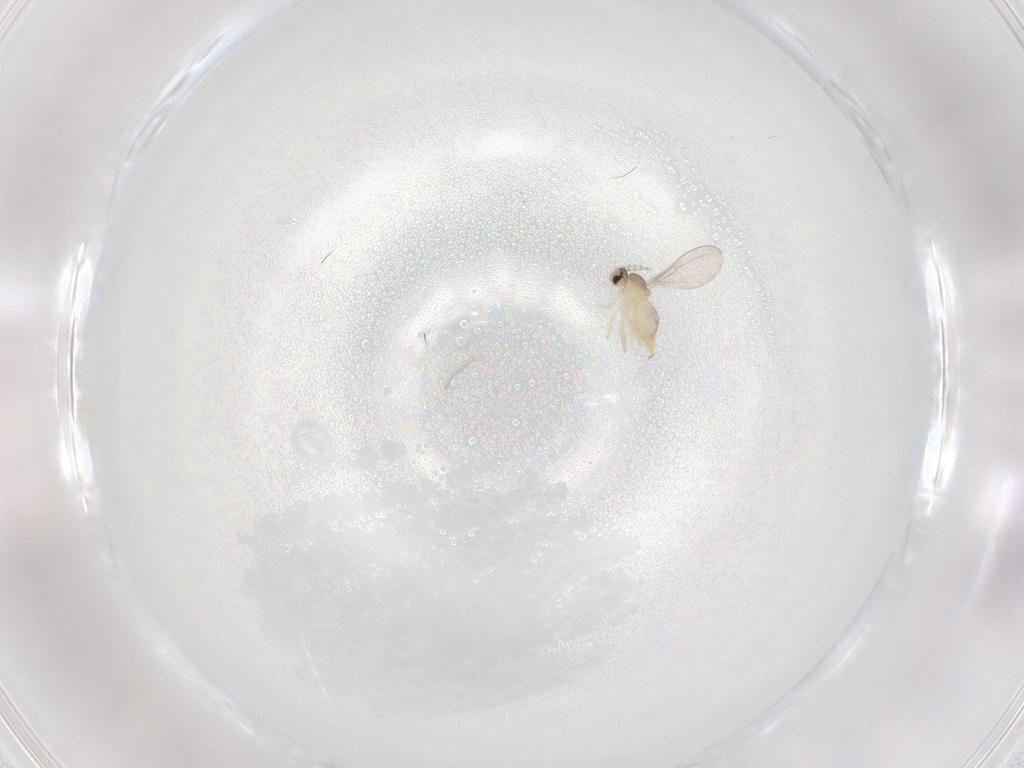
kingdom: Animalia
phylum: Arthropoda
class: Insecta
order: Diptera
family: Cecidomyiidae
